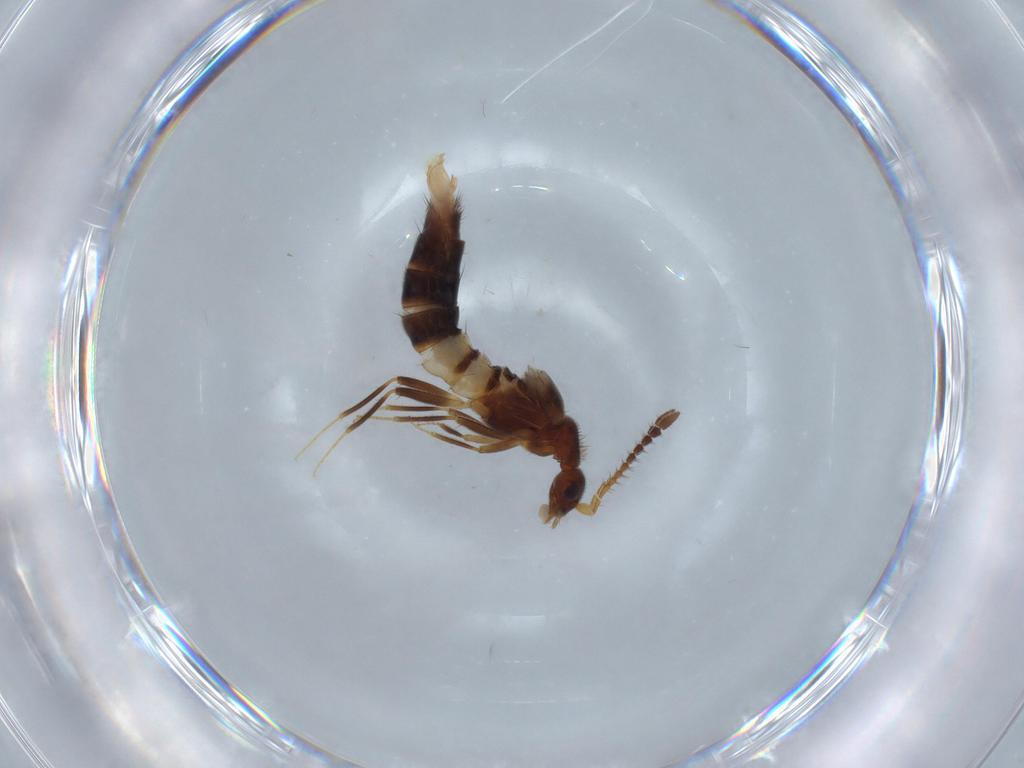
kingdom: Animalia
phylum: Arthropoda
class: Insecta
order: Coleoptera
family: Staphylinidae
